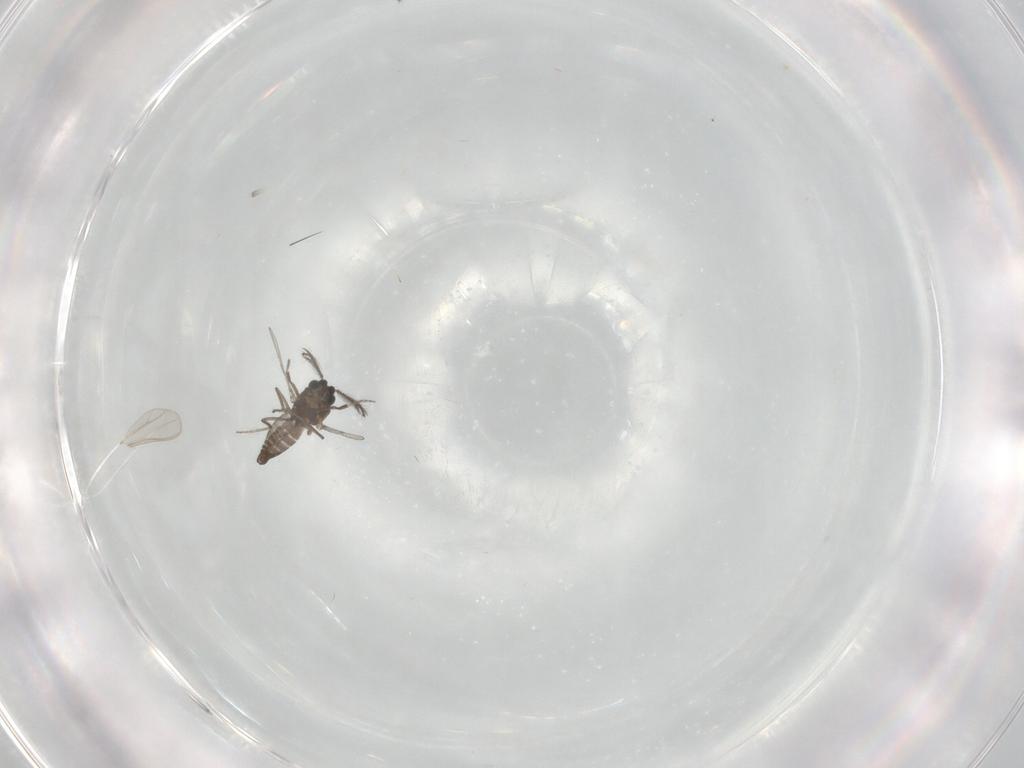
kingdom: Animalia
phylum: Arthropoda
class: Insecta
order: Diptera
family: Ceratopogonidae
